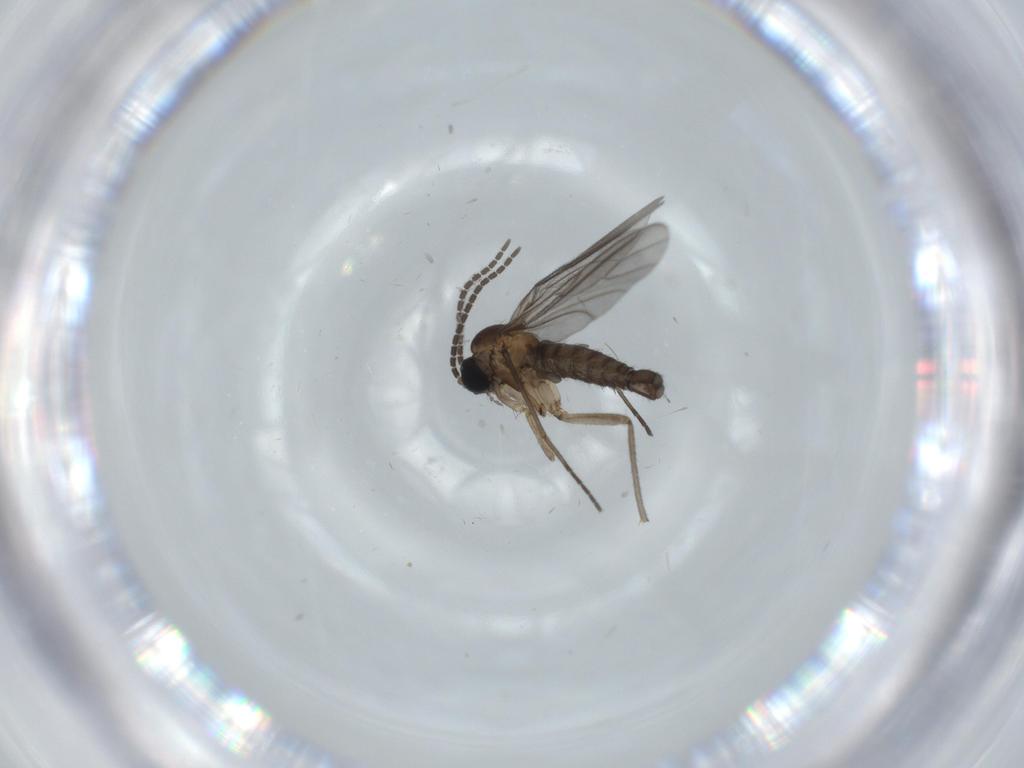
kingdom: Animalia
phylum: Arthropoda
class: Insecta
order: Diptera
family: Sciaridae
